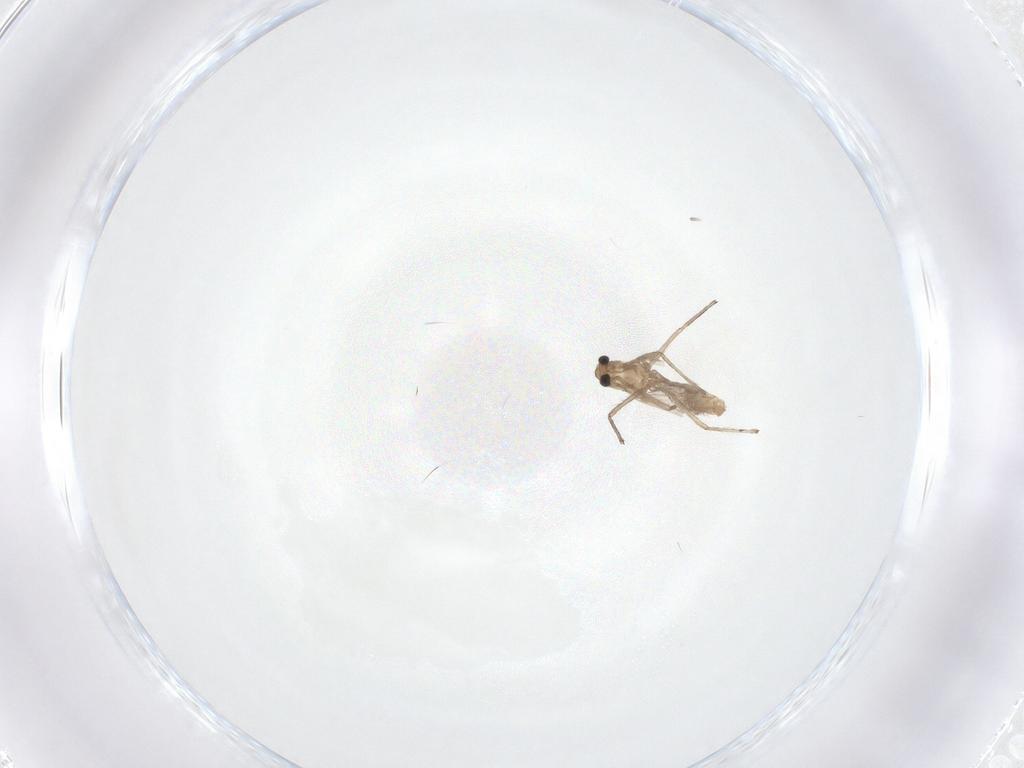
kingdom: Animalia
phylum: Arthropoda
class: Insecta
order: Diptera
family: Chironomidae
